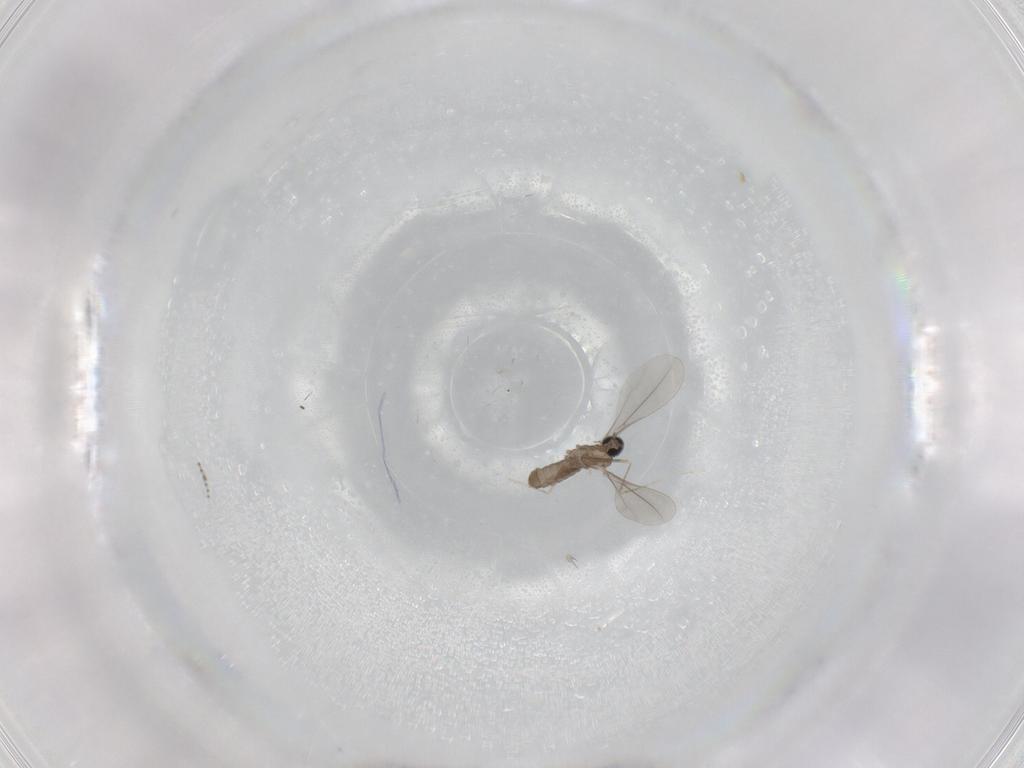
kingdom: Animalia
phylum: Arthropoda
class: Insecta
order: Diptera
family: Cecidomyiidae
